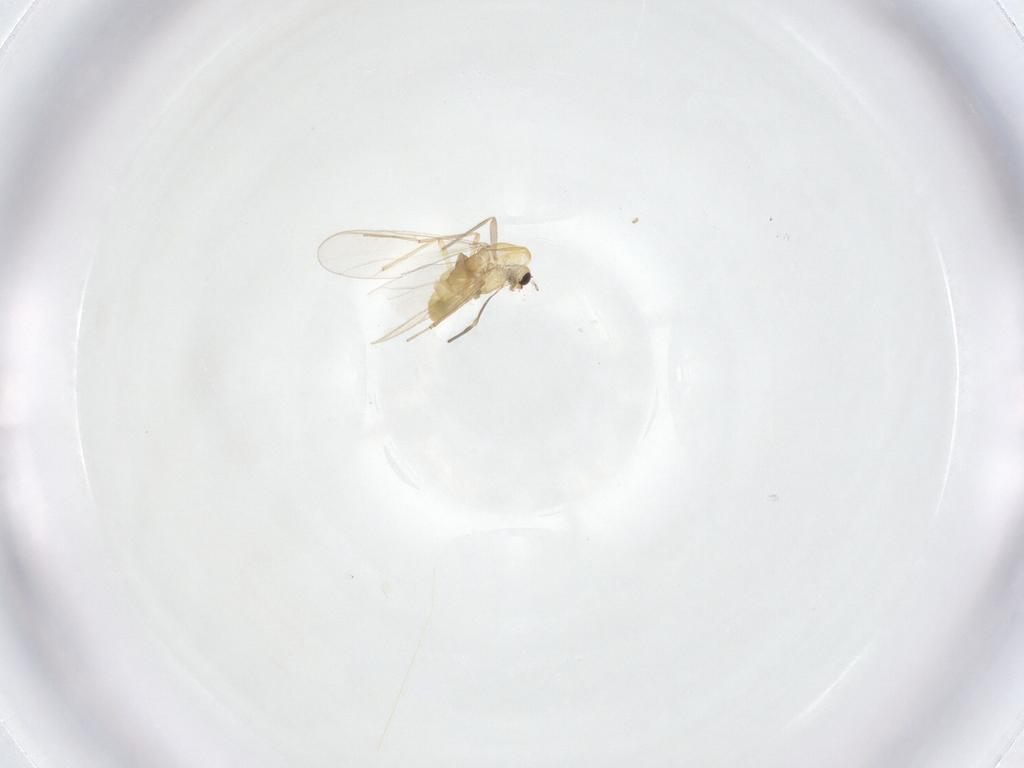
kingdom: Animalia
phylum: Arthropoda
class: Insecta
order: Diptera
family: Chironomidae
